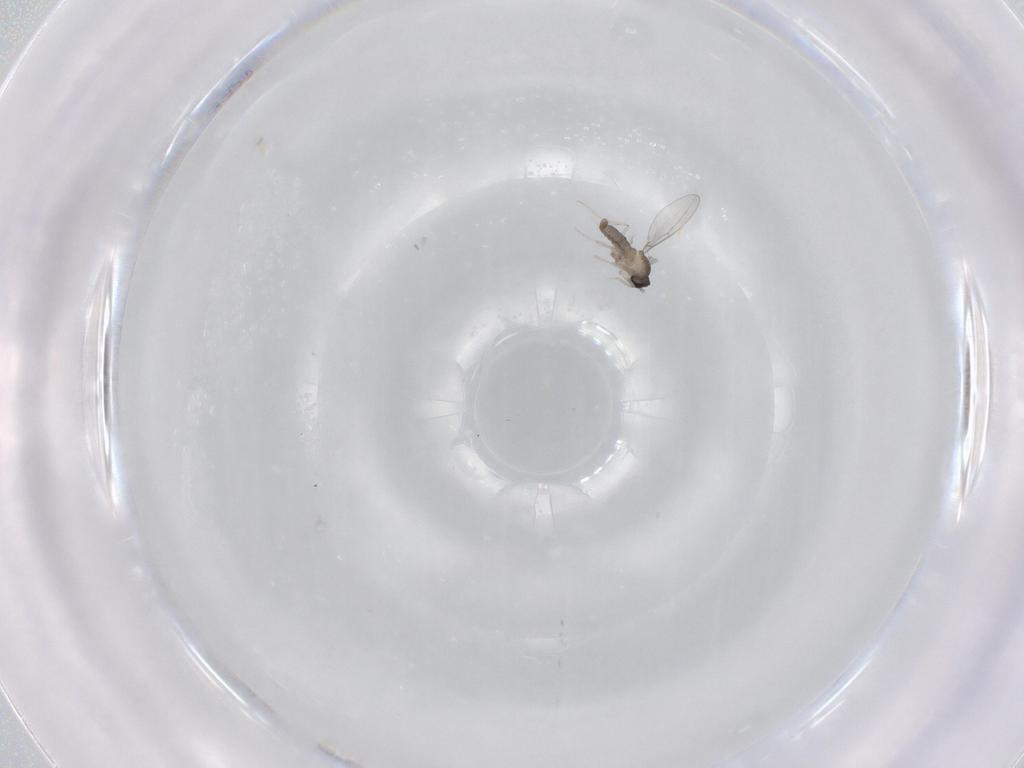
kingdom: Animalia
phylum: Arthropoda
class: Insecta
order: Diptera
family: Cecidomyiidae
